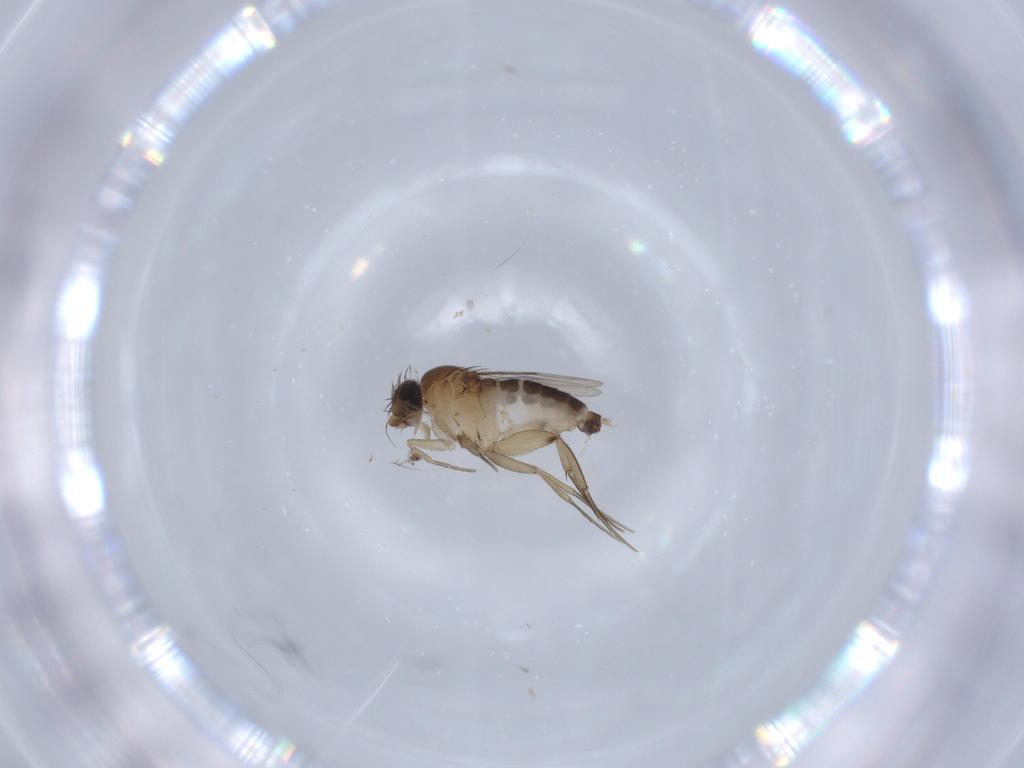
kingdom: Animalia
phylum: Arthropoda
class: Insecta
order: Diptera
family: Phoridae
